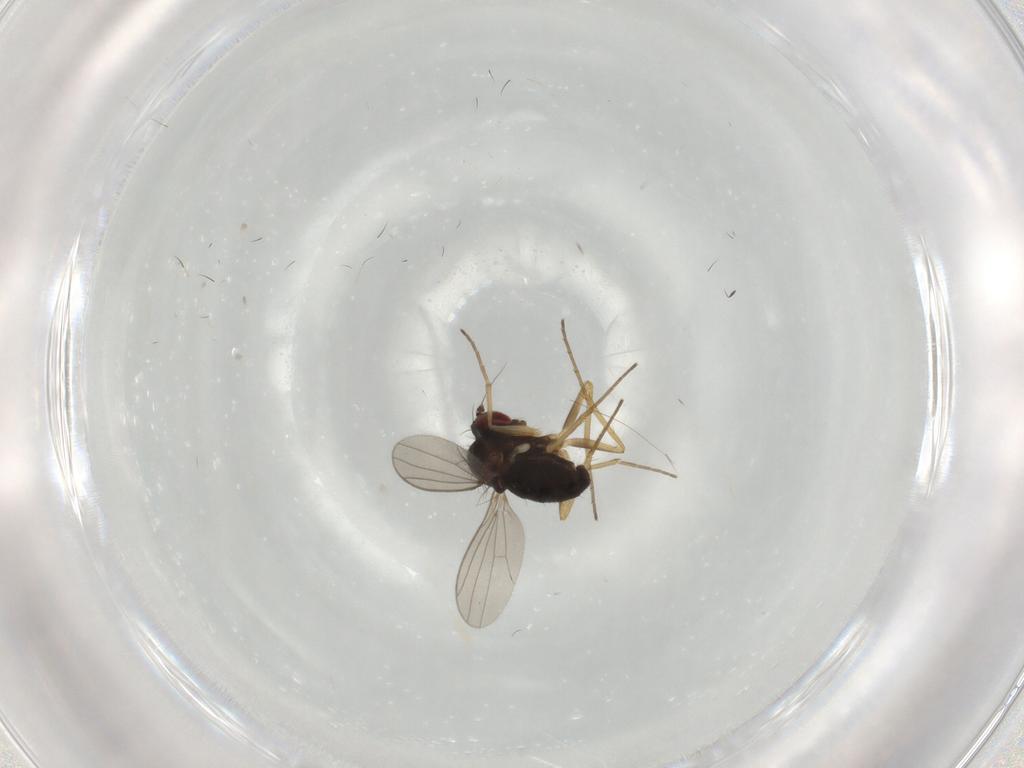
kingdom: Animalia
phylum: Arthropoda
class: Insecta
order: Diptera
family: Dolichopodidae
